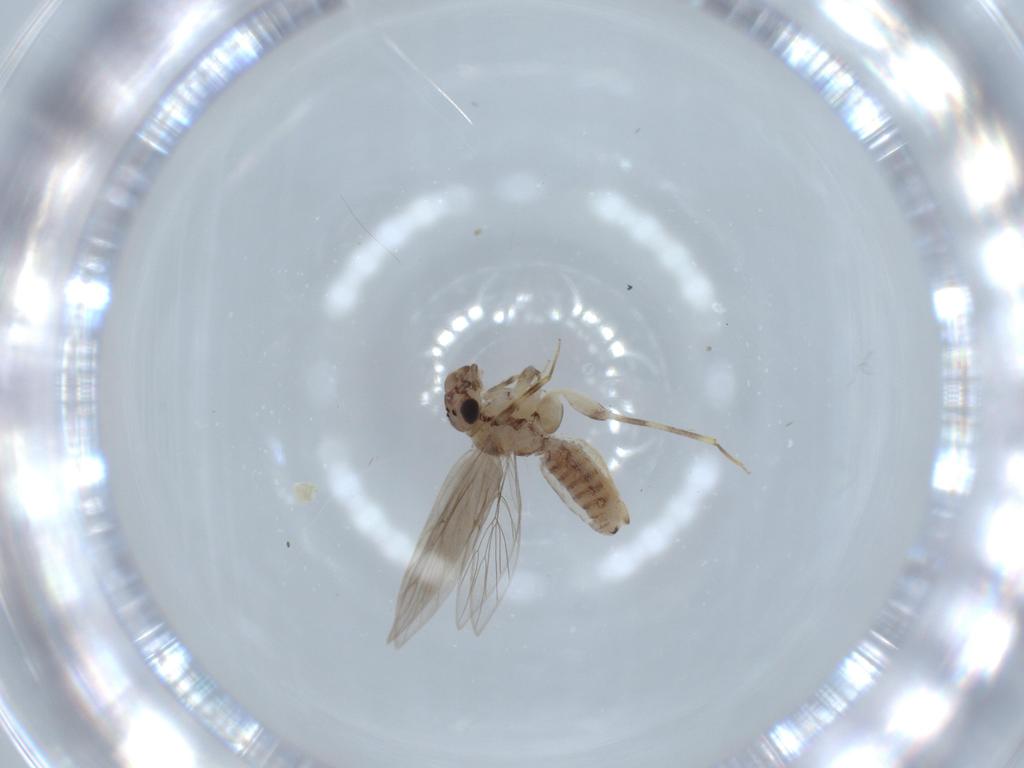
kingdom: Animalia
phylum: Arthropoda
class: Insecta
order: Psocodea
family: Lepidopsocidae
